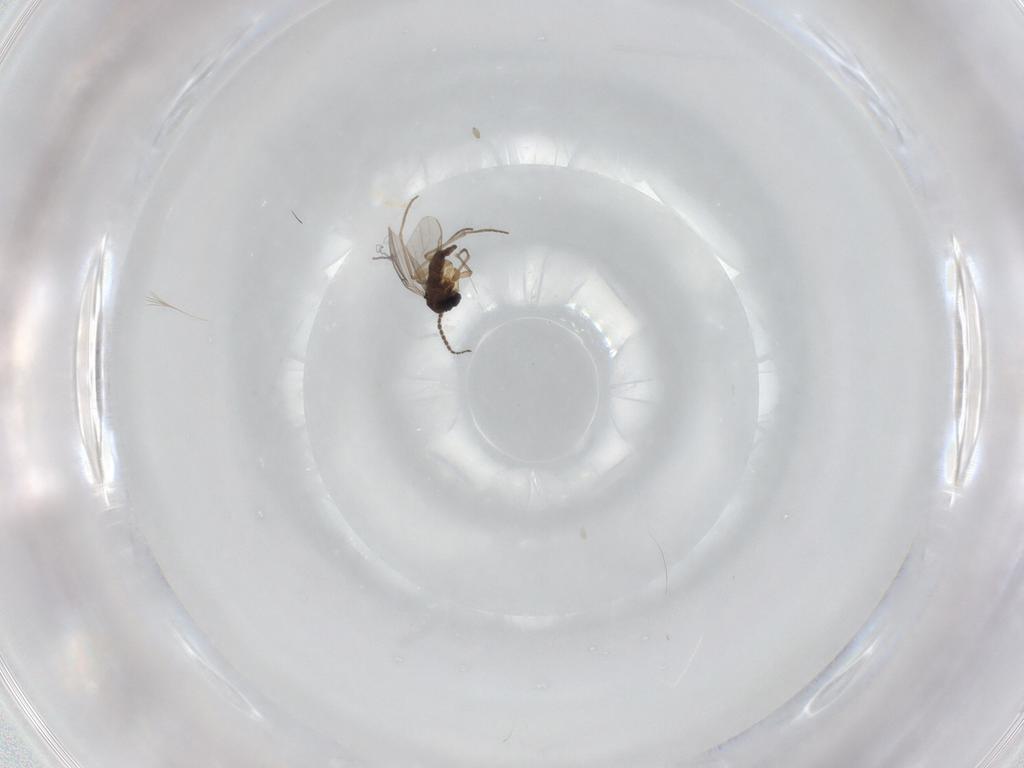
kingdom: Animalia
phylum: Arthropoda
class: Insecta
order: Diptera
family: Sciaridae
